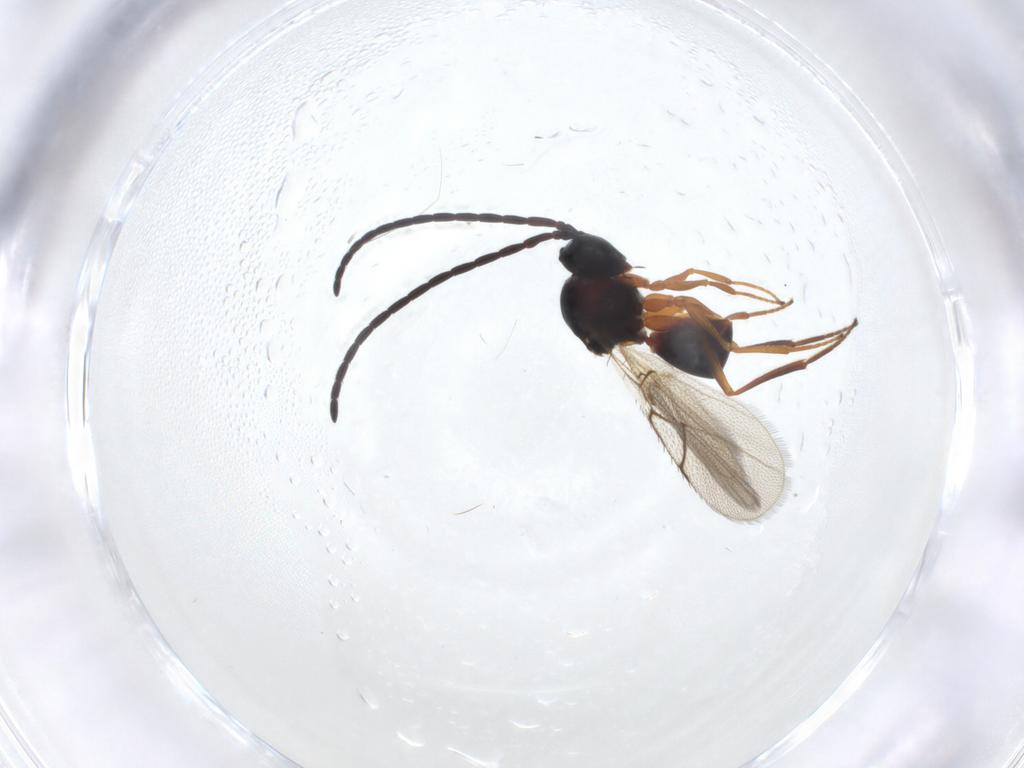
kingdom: Animalia
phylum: Arthropoda
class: Insecta
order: Hymenoptera
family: Figitidae
